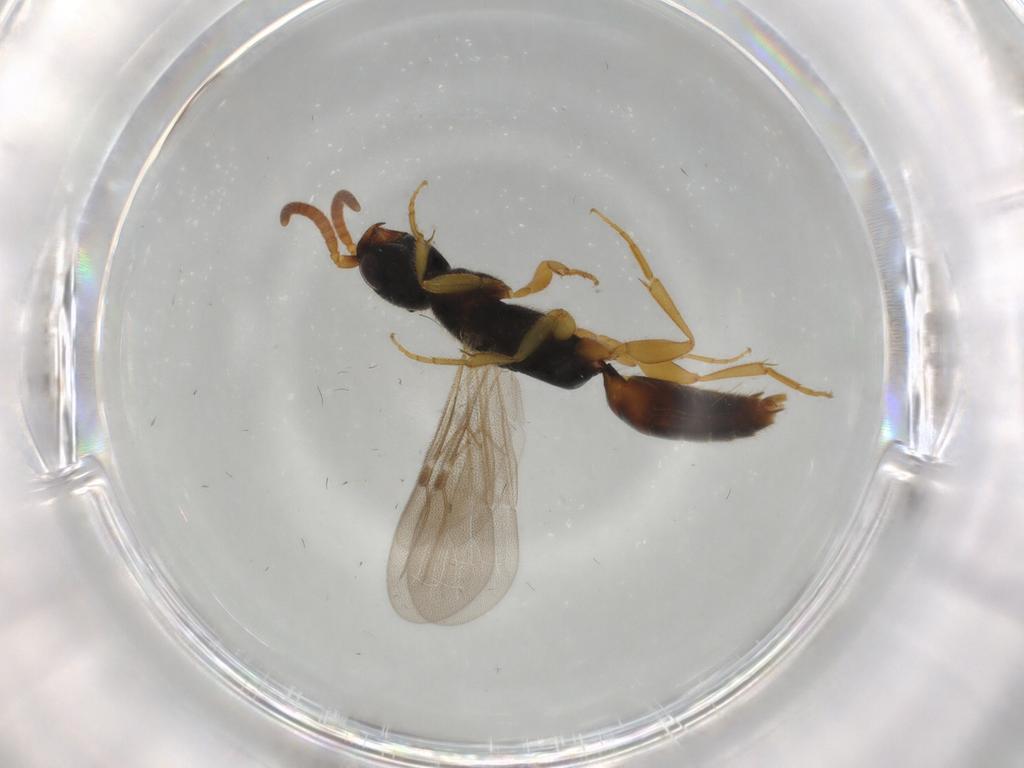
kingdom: Animalia
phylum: Arthropoda
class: Insecta
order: Hymenoptera
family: Bethylidae
